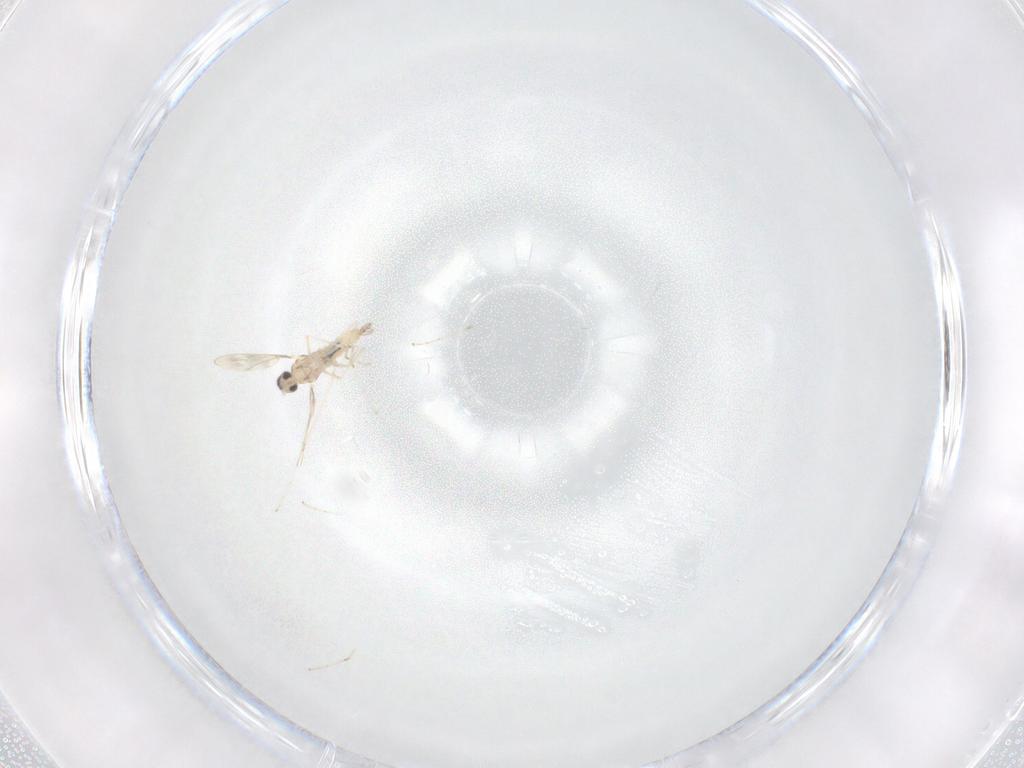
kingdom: Animalia
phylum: Arthropoda
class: Insecta
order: Diptera
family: Cecidomyiidae
